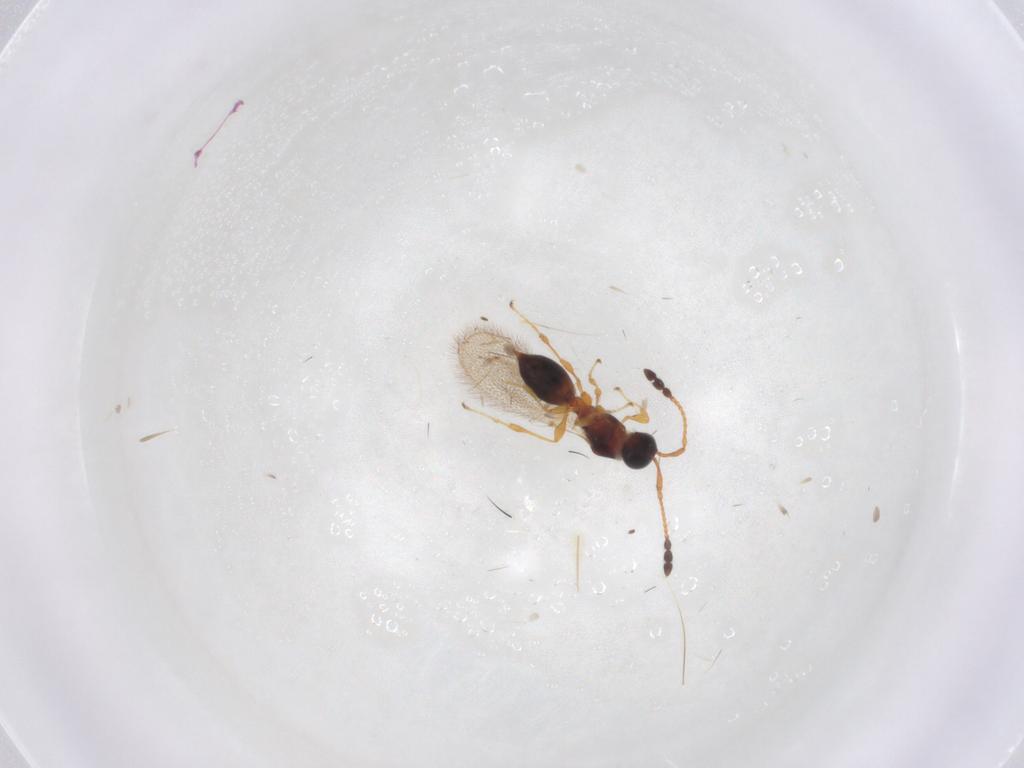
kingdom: Animalia
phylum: Arthropoda
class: Insecta
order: Hymenoptera
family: Diapriidae
